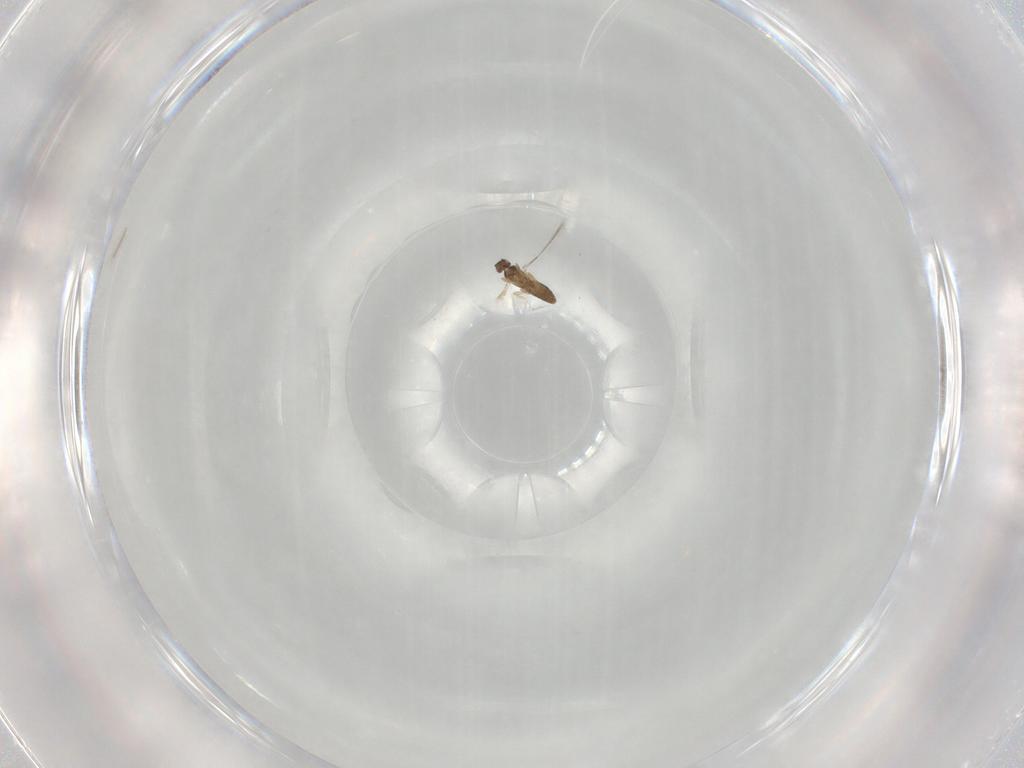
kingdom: Animalia
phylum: Arthropoda
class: Insecta
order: Hymenoptera
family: Mymaridae
